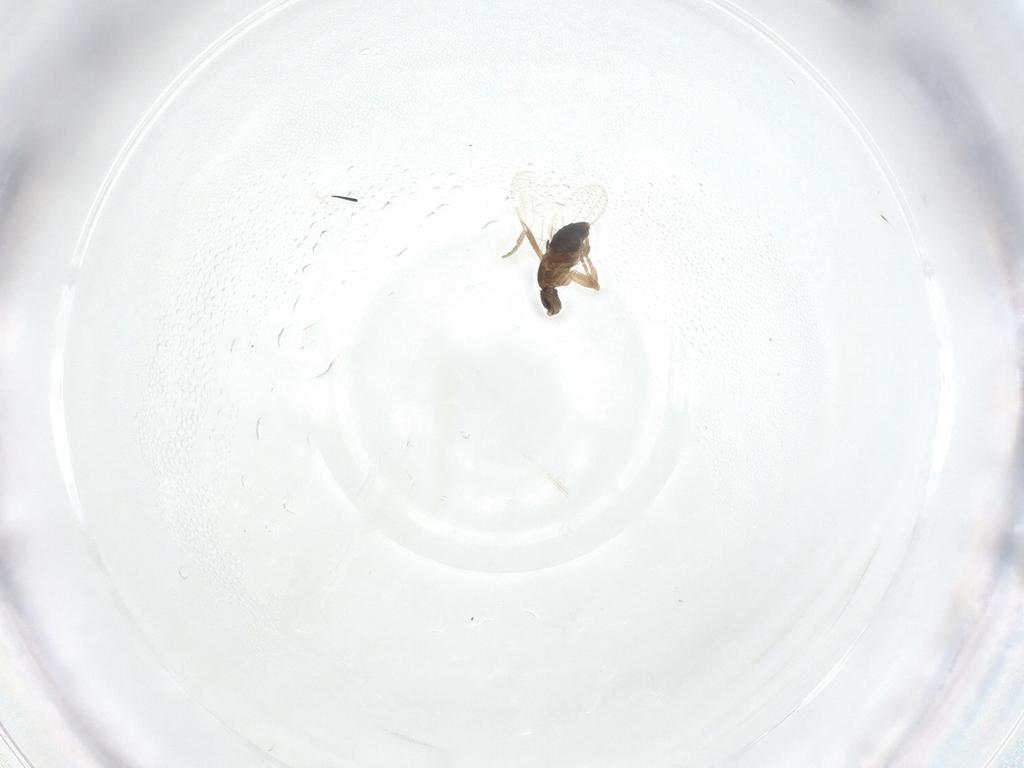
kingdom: Animalia
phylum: Arthropoda
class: Insecta
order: Diptera
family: Phoridae
